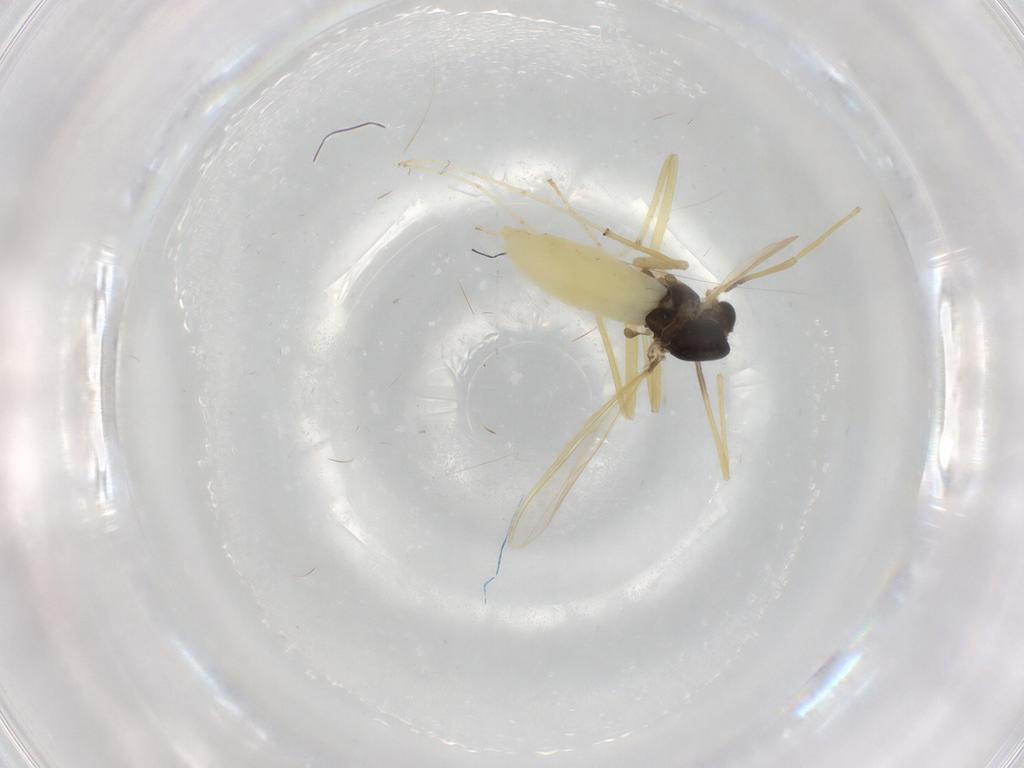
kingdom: Animalia
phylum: Arthropoda
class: Insecta
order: Diptera
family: Chironomidae
